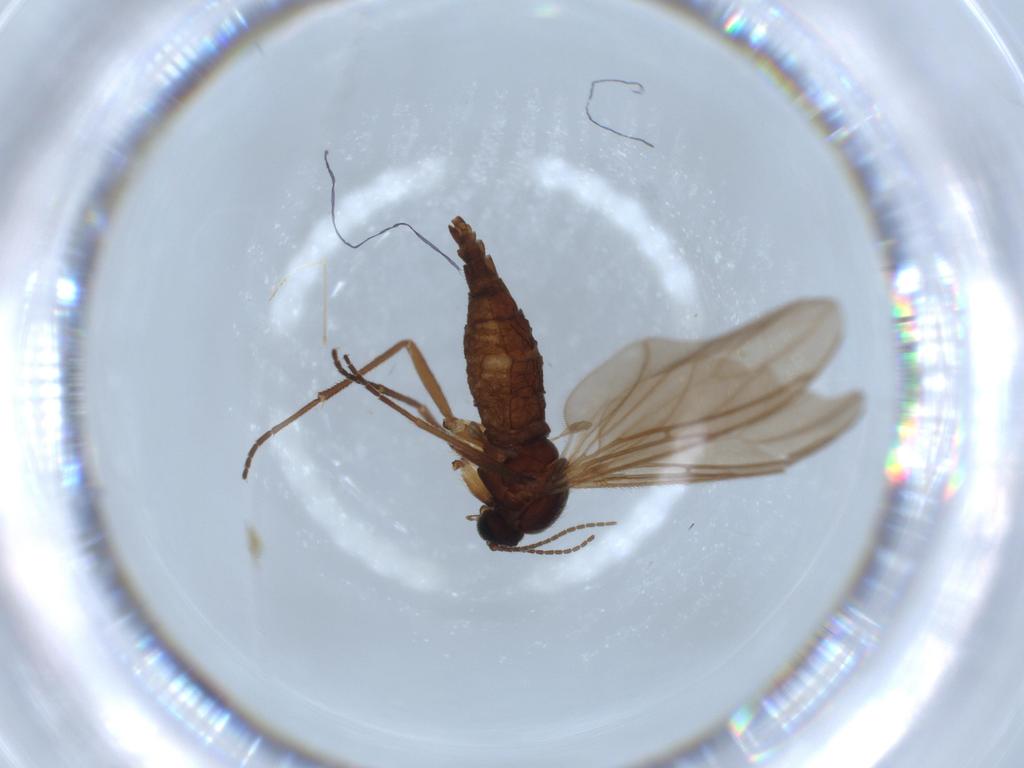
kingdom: Animalia
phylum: Arthropoda
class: Insecta
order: Diptera
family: Sciaridae
